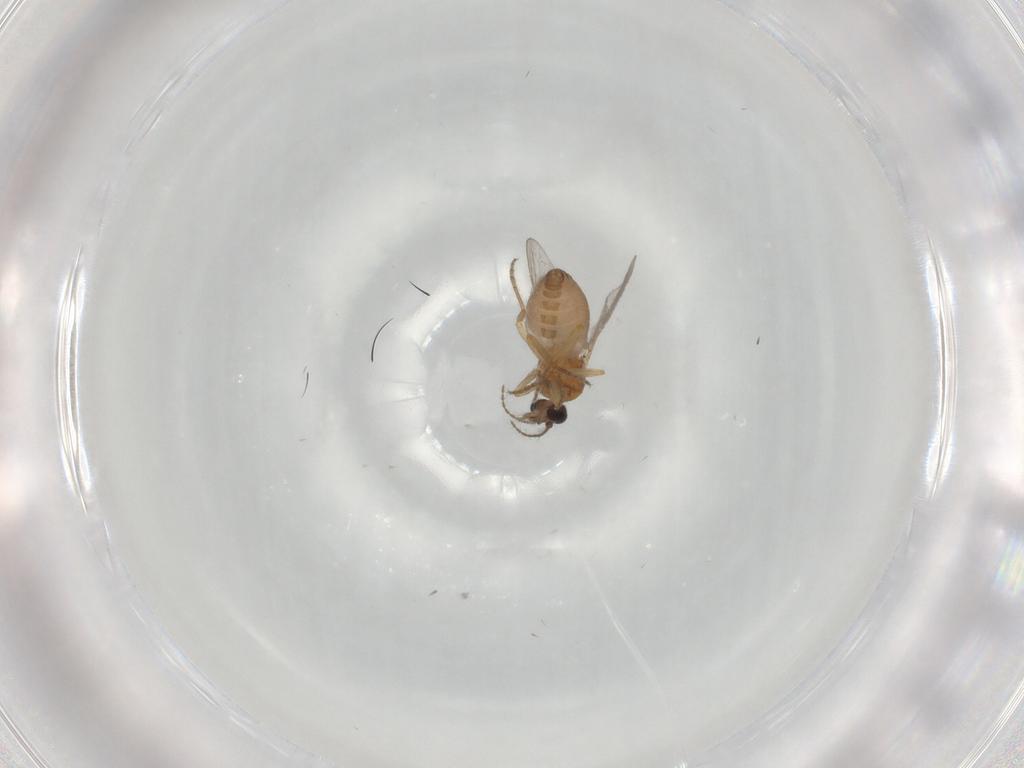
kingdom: Animalia
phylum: Arthropoda
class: Insecta
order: Diptera
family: Ceratopogonidae
